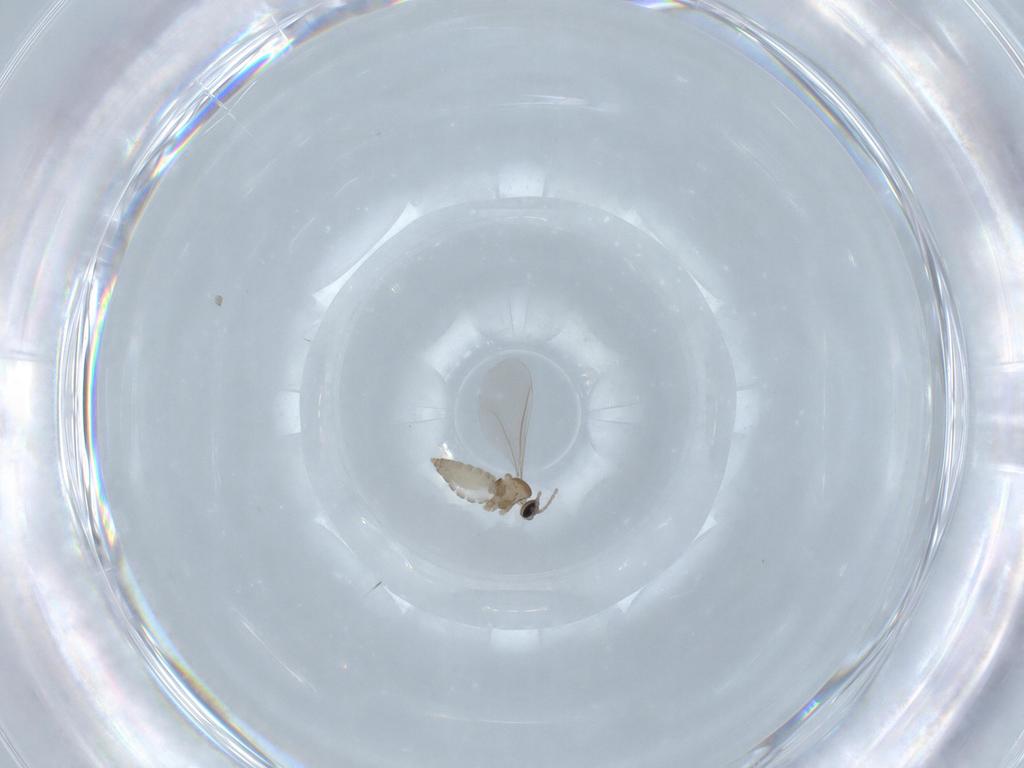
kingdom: Animalia
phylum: Arthropoda
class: Insecta
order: Diptera
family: Cecidomyiidae
